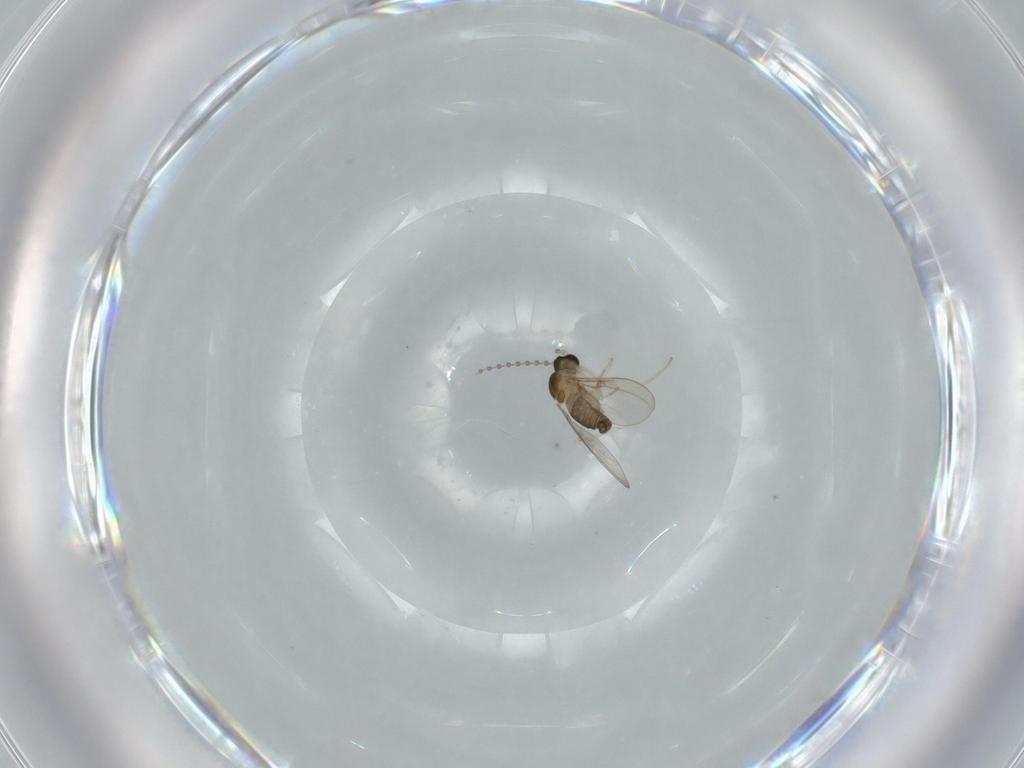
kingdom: Animalia
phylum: Arthropoda
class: Insecta
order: Diptera
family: Cecidomyiidae
